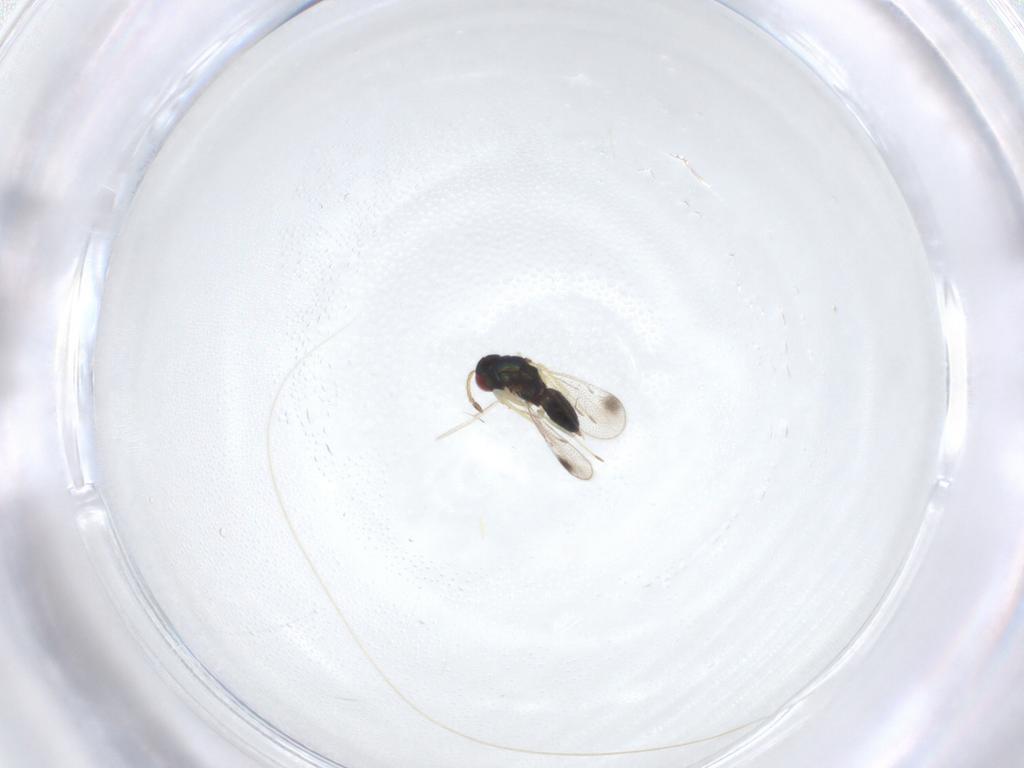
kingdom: Animalia
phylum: Arthropoda
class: Insecta
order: Hymenoptera
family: Eulophidae
